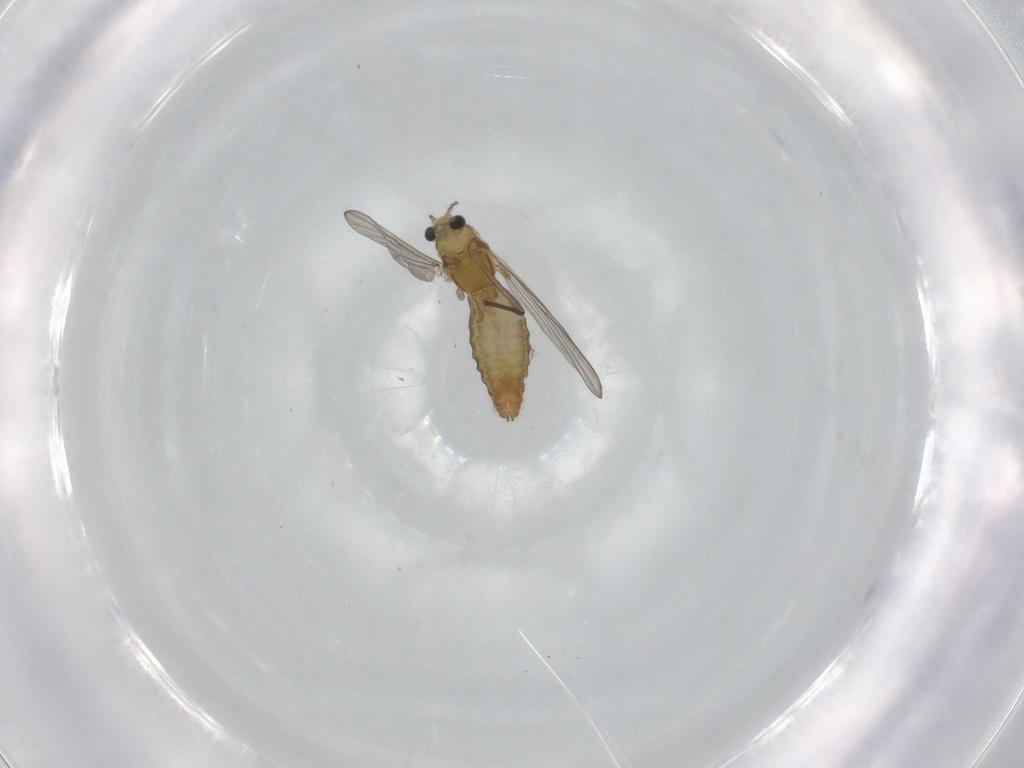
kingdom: Animalia
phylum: Arthropoda
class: Insecta
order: Diptera
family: Chironomidae
